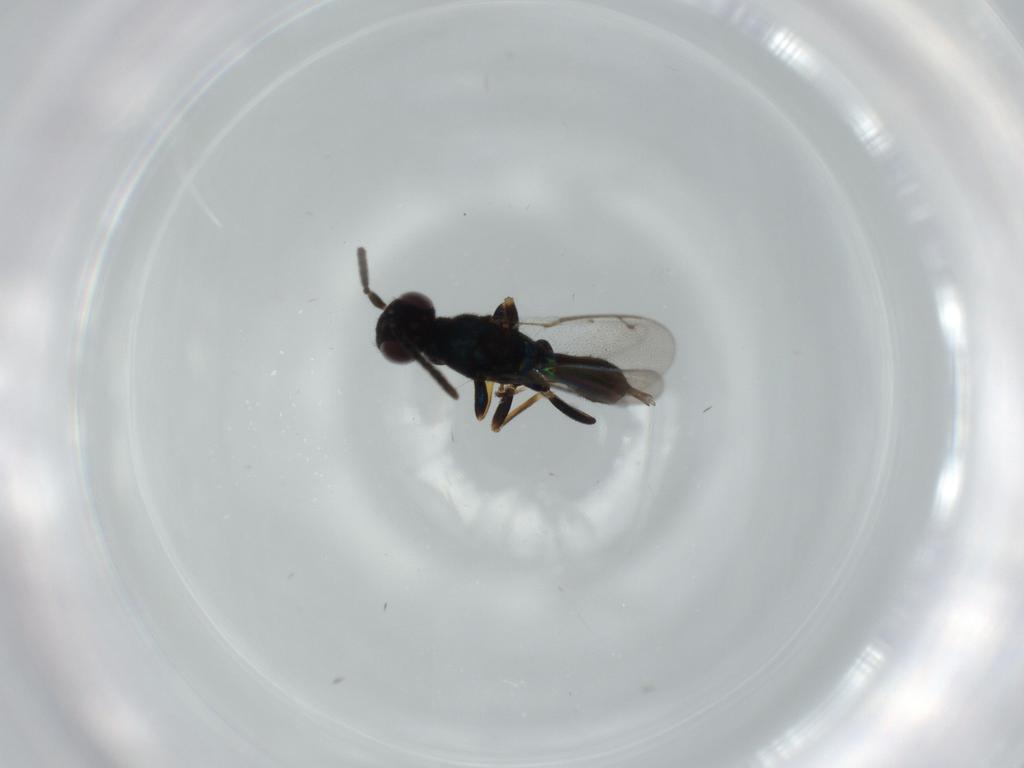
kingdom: Animalia
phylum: Arthropoda
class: Insecta
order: Hymenoptera
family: Eupelmidae
